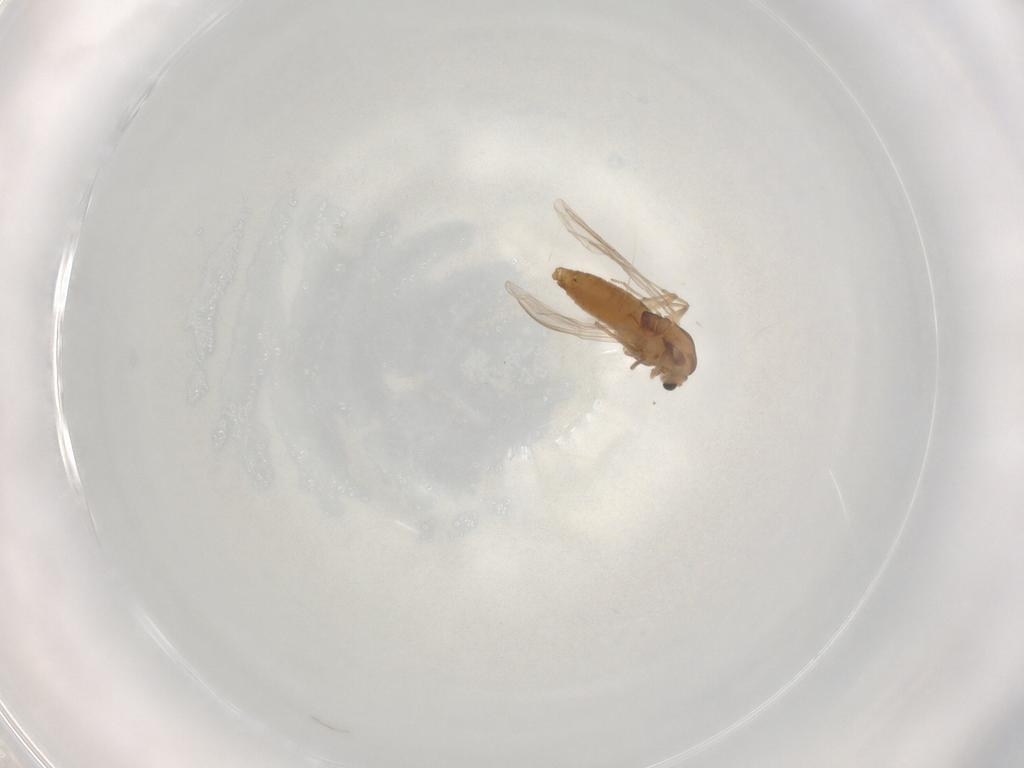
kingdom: Animalia
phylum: Arthropoda
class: Insecta
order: Diptera
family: Chironomidae
